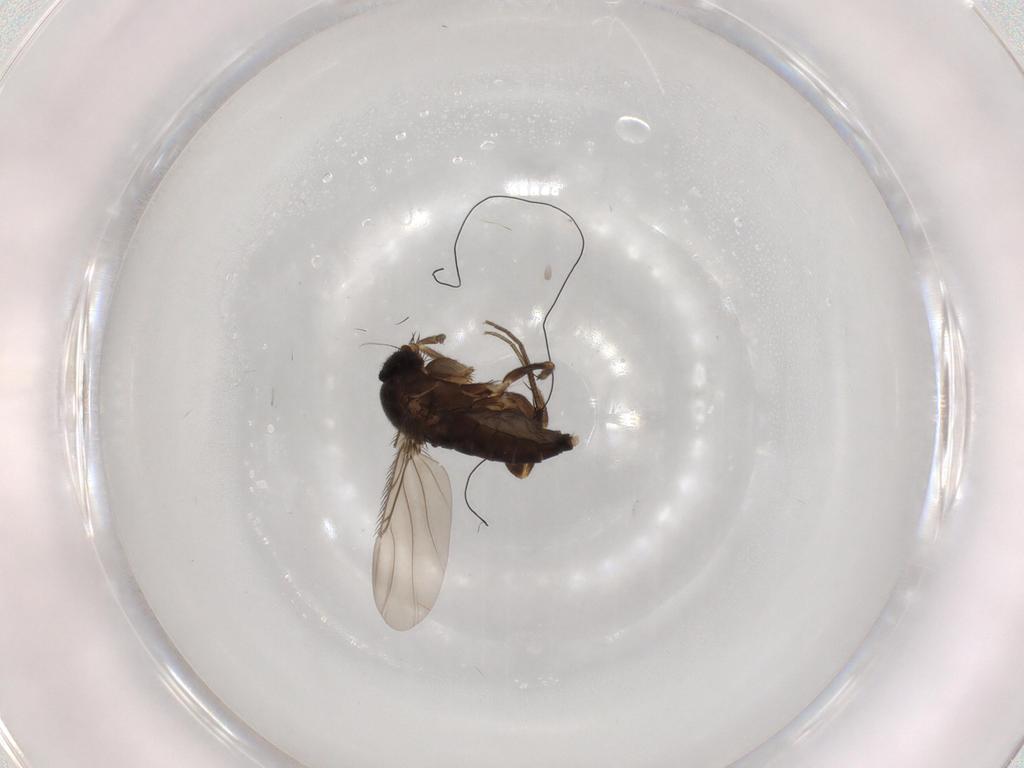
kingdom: Animalia
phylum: Arthropoda
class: Insecta
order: Diptera
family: Phoridae
